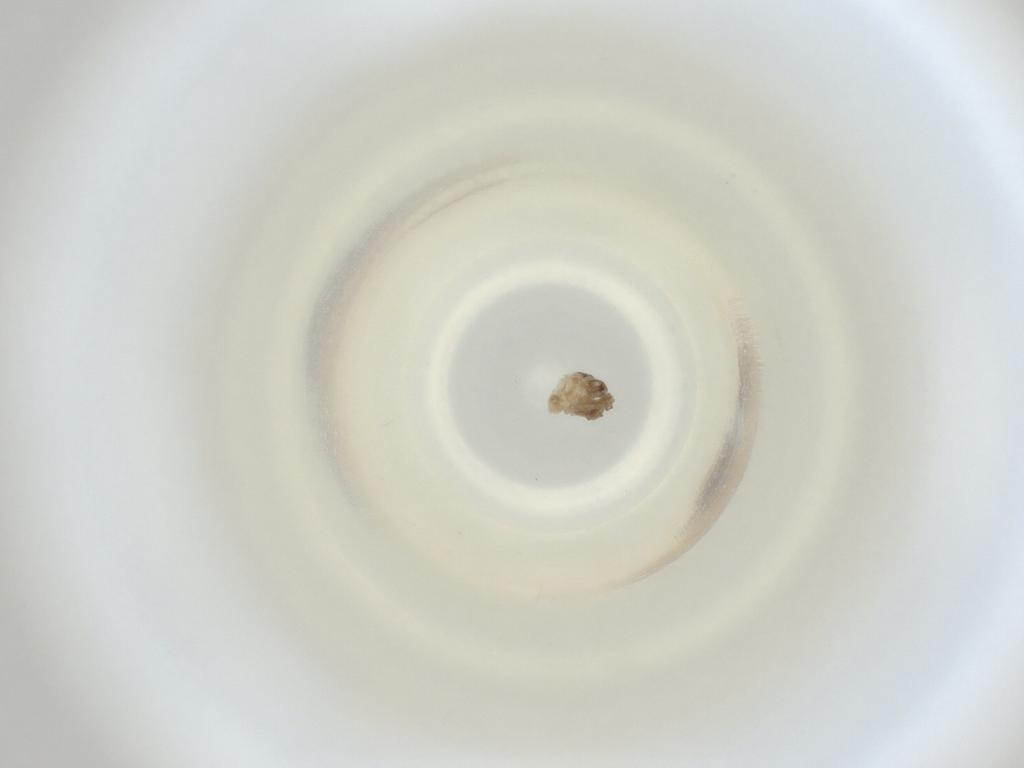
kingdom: Animalia
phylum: Arthropoda
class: Insecta
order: Diptera
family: Cecidomyiidae
